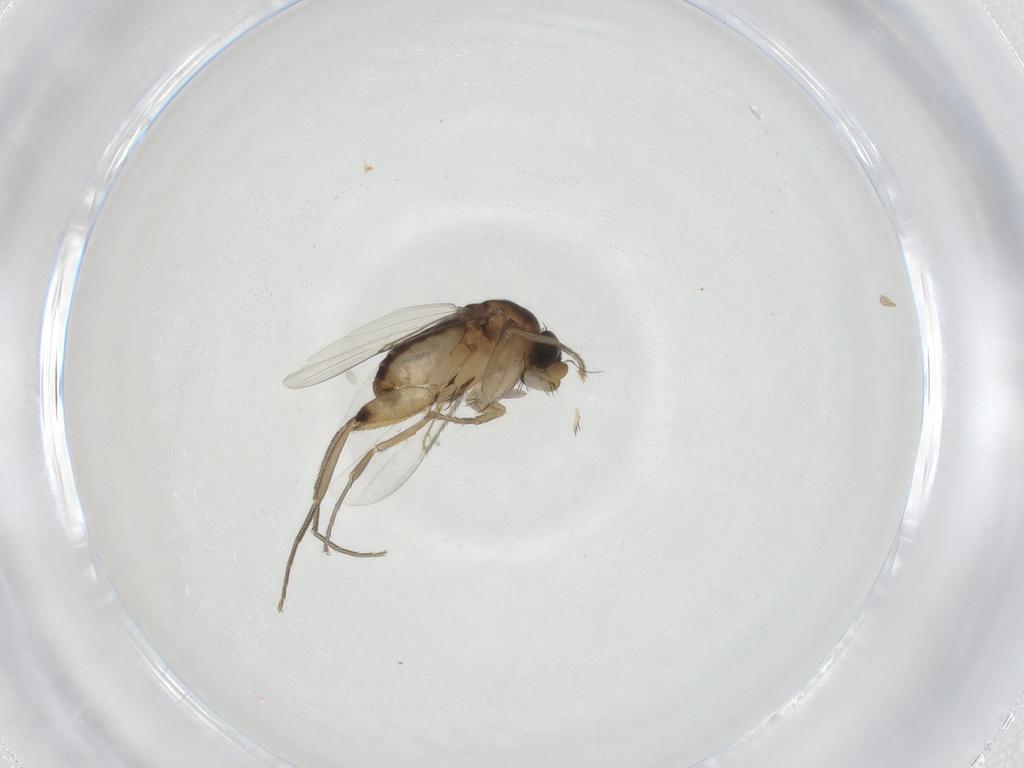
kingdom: Animalia
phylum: Arthropoda
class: Insecta
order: Diptera
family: Phoridae
